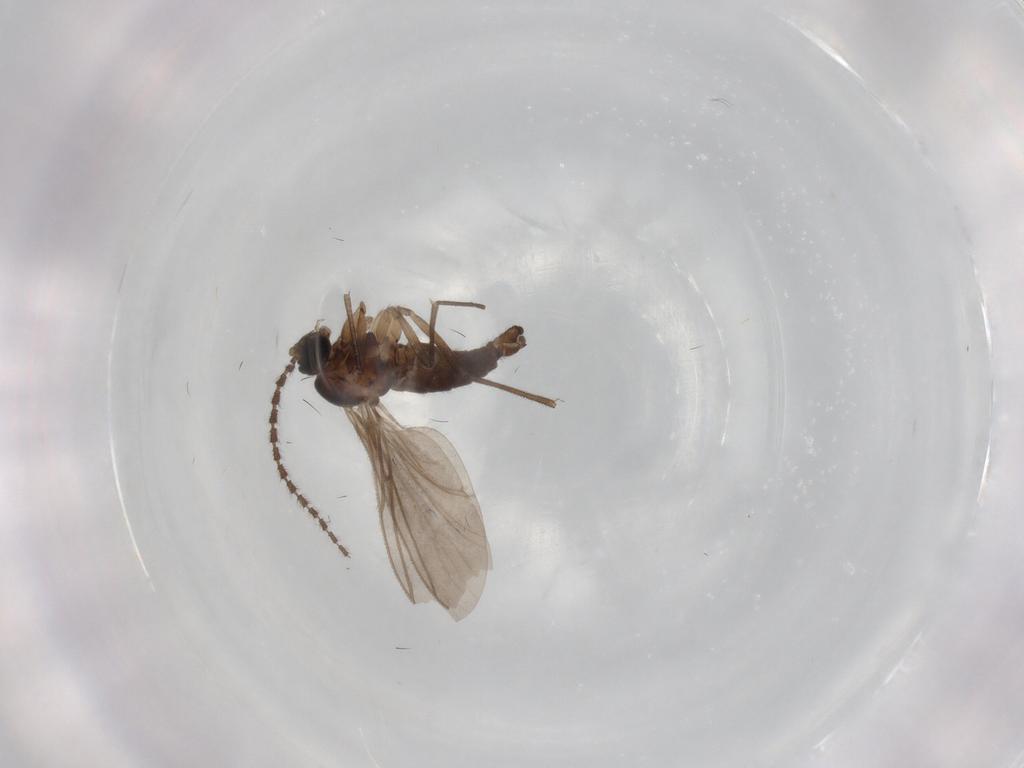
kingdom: Animalia
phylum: Arthropoda
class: Insecta
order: Diptera
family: Sciaridae
